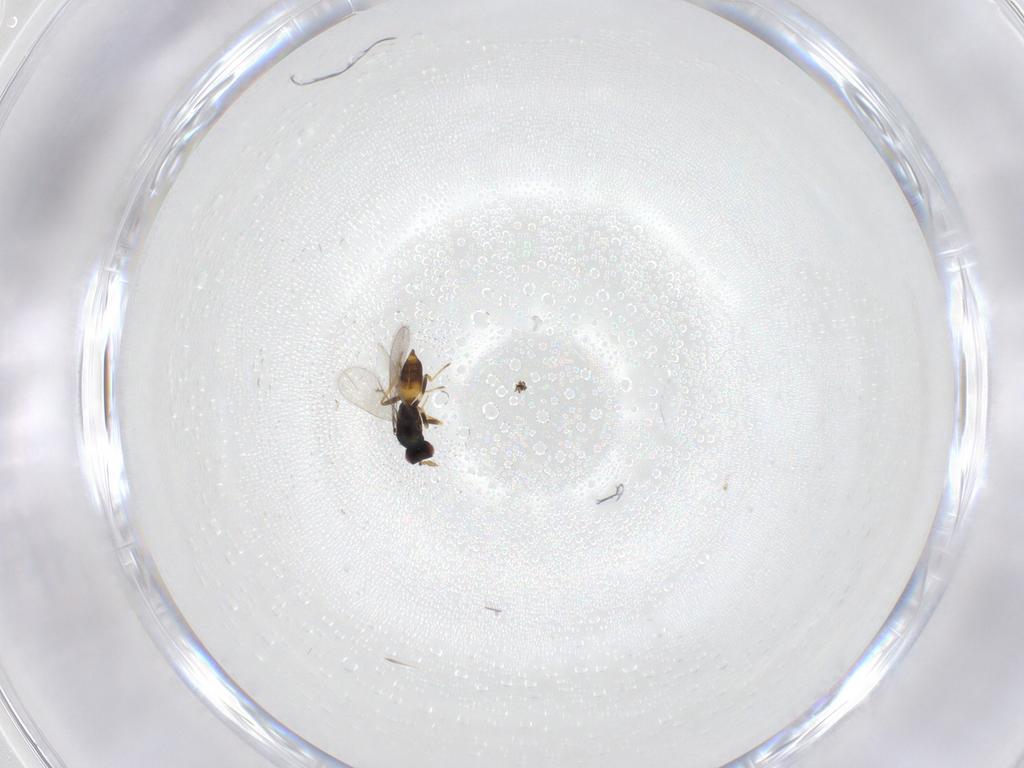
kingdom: Animalia
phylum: Arthropoda
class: Insecta
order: Hymenoptera
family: Eulophidae
